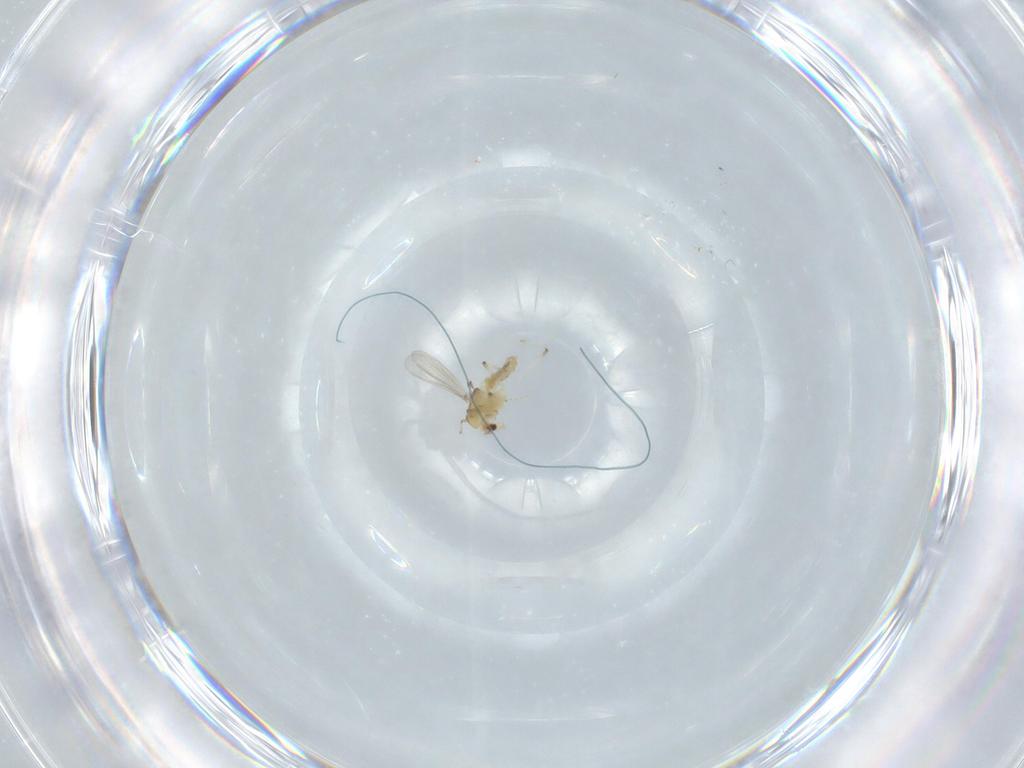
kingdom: Animalia
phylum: Arthropoda
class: Insecta
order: Diptera
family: Chironomidae
